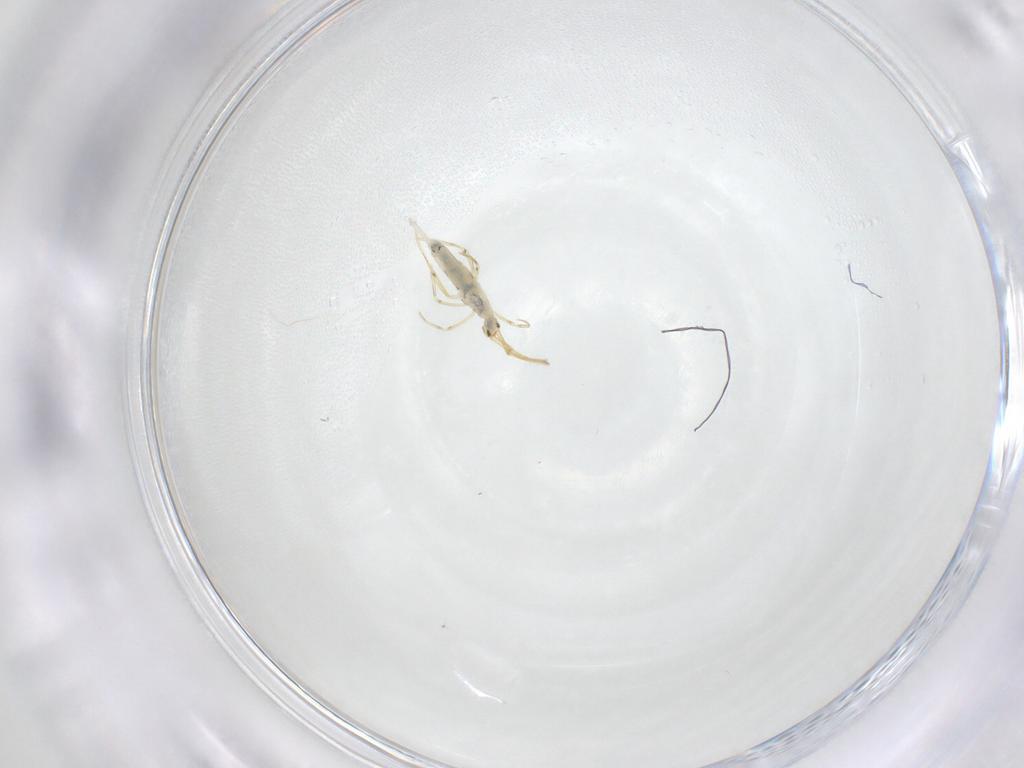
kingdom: Animalia
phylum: Arthropoda
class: Collembola
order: Entomobryomorpha
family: Entomobryidae
